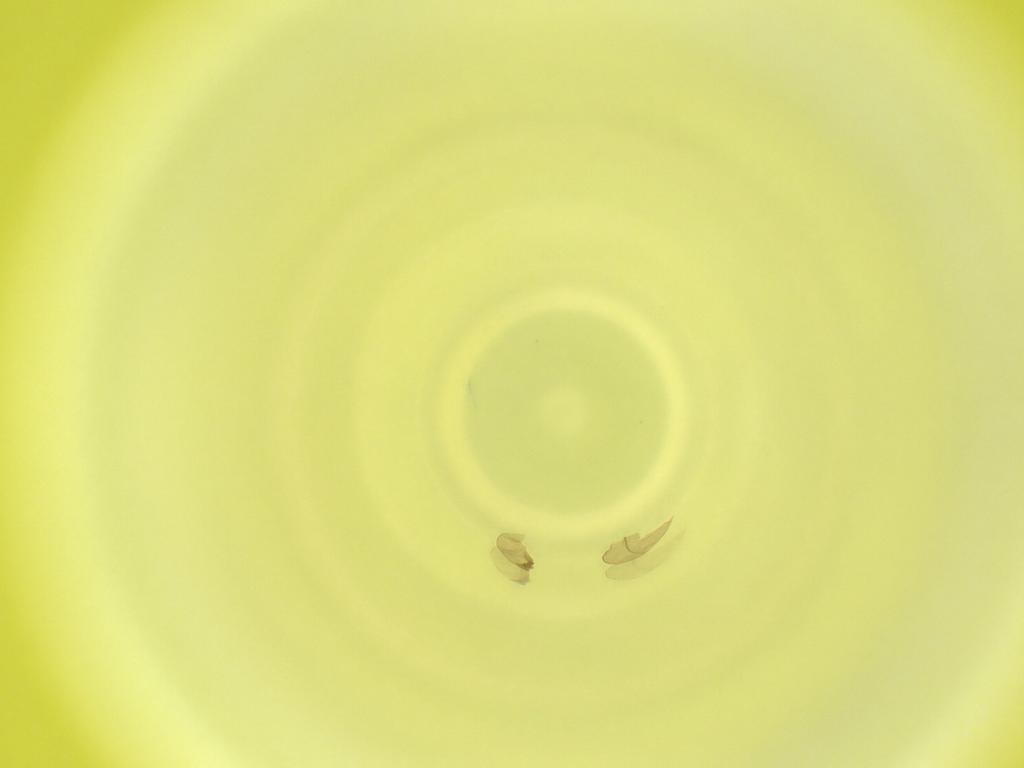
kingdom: Animalia
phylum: Arthropoda
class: Insecta
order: Diptera
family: Cecidomyiidae
